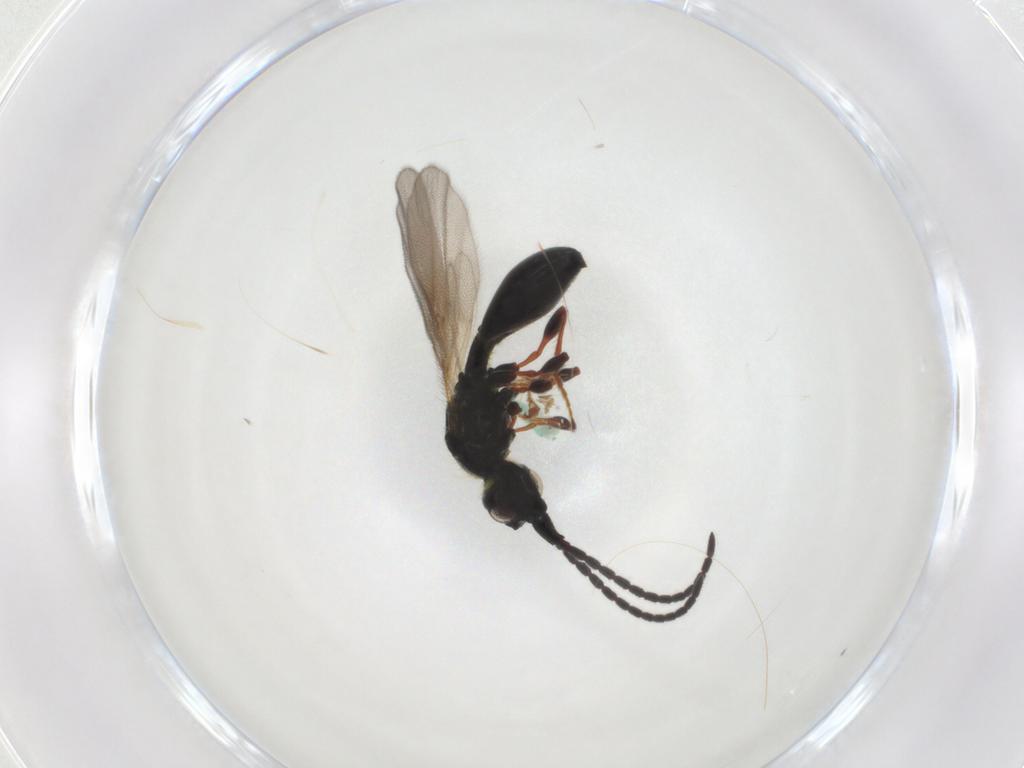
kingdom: Animalia
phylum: Arthropoda
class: Insecta
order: Hymenoptera
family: Diapriidae
